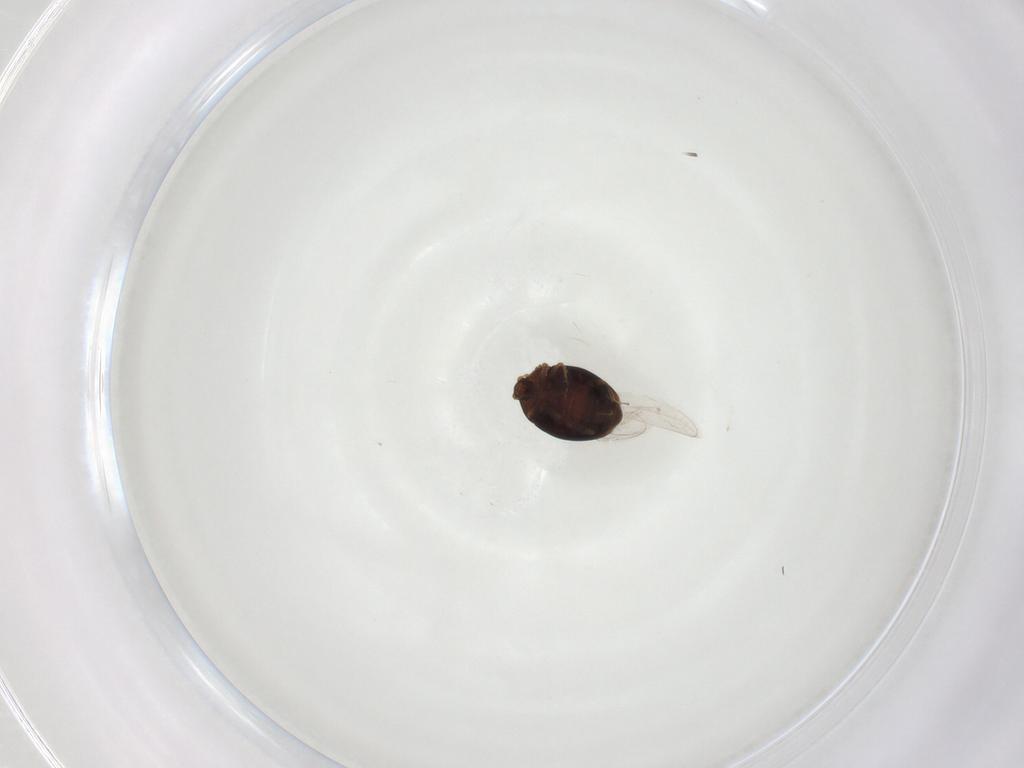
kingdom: Animalia
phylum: Arthropoda
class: Insecta
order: Coleoptera
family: Corylophidae
